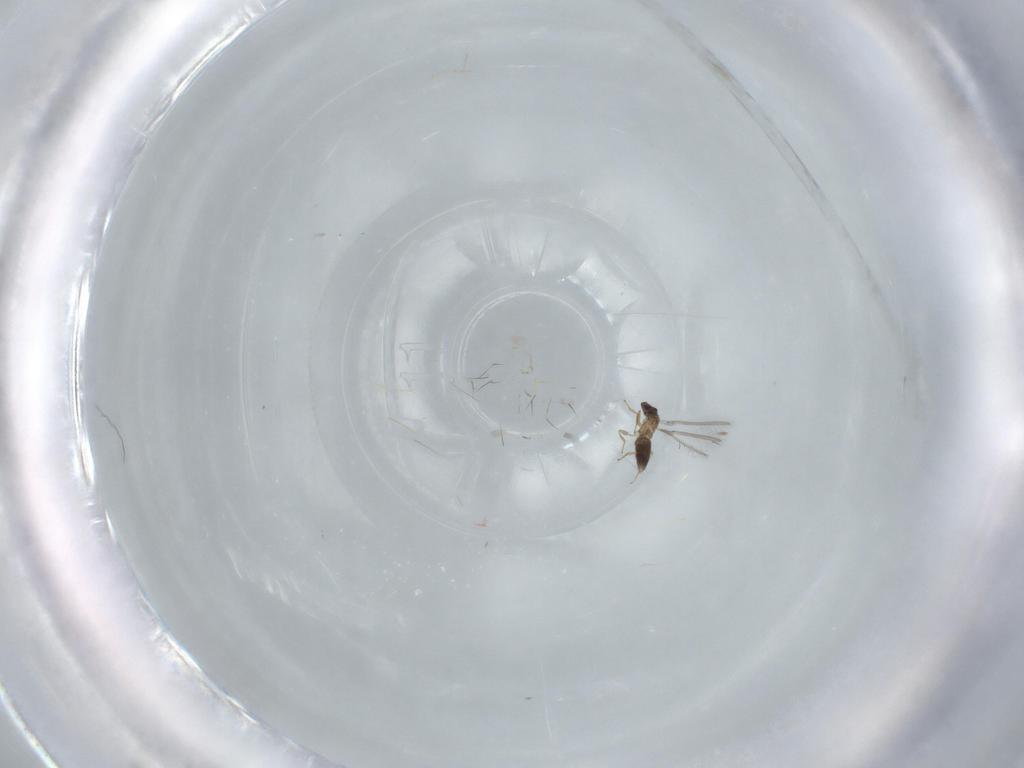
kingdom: Animalia
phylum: Arthropoda
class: Insecta
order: Hymenoptera
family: Mymaridae
